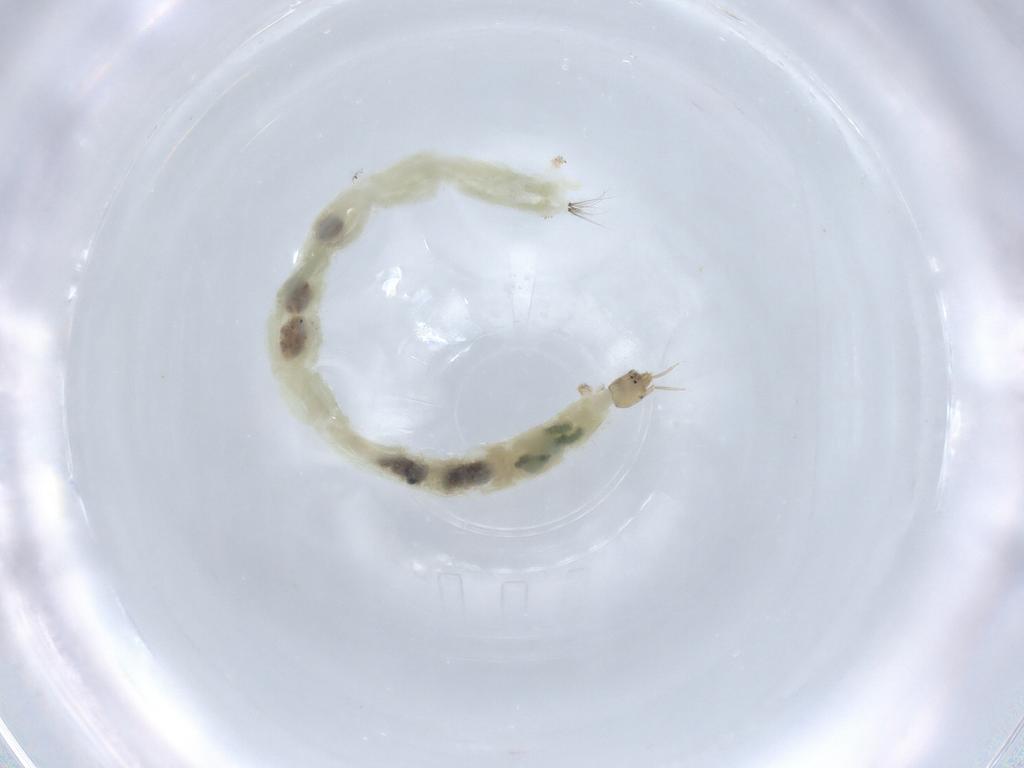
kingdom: Animalia
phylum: Arthropoda
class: Insecta
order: Diptera
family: Chironomidae
